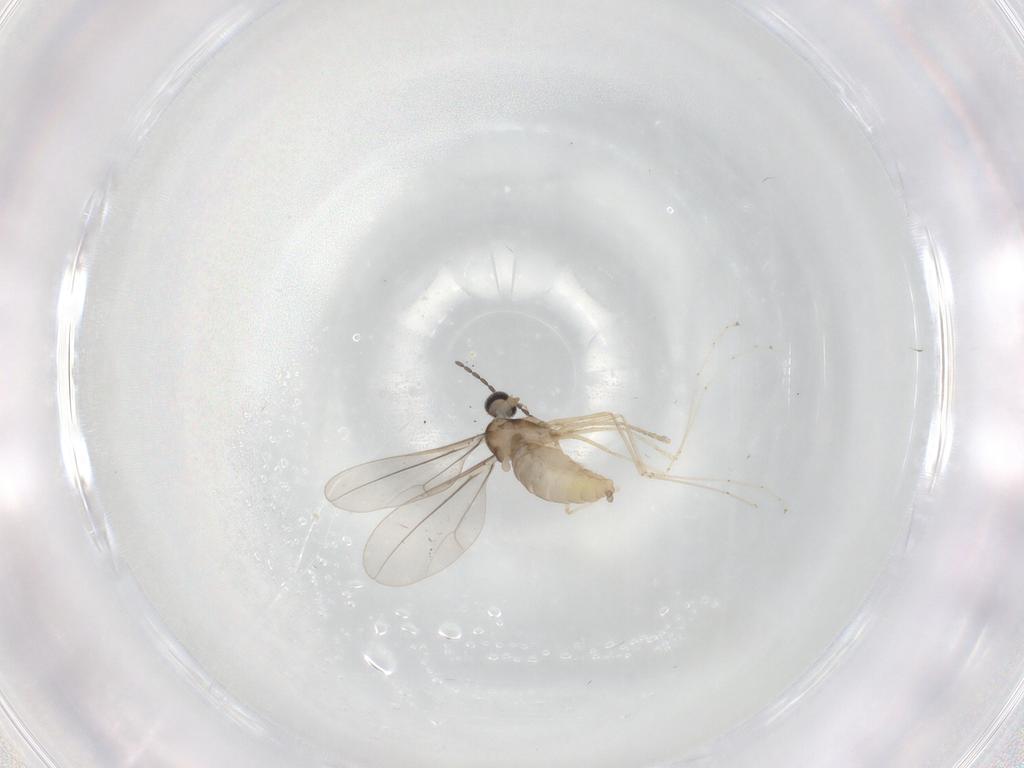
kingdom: Animalia
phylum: Arthropoda
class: Insecta
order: Diptera
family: Cecidomyiidae
